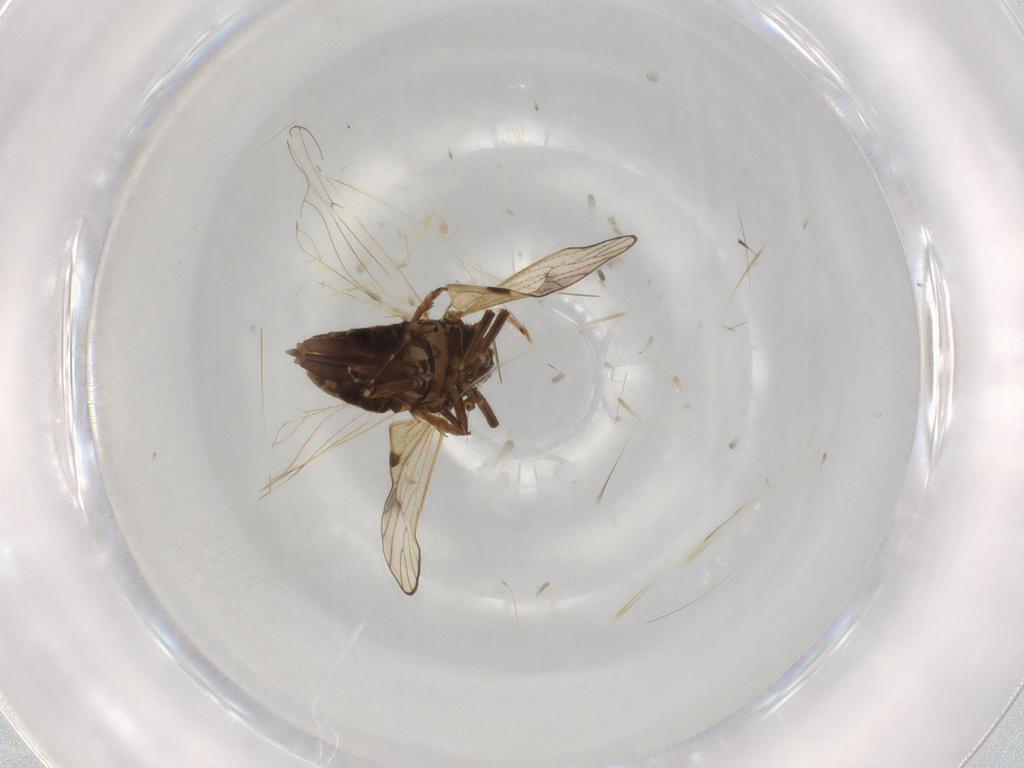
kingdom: Animalia
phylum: Arthropoda
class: Insecta
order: Hemiptera
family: Delphacidae
